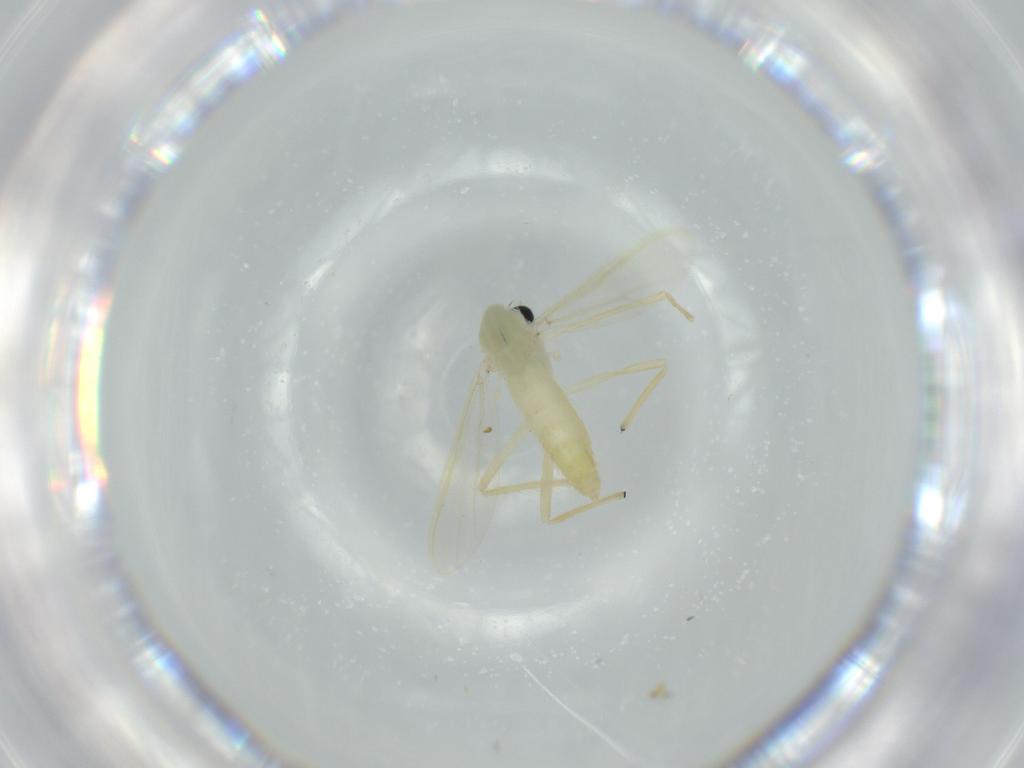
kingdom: Animalia
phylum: Arthropoda
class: Insecta
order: Diptera
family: Chironomidae
